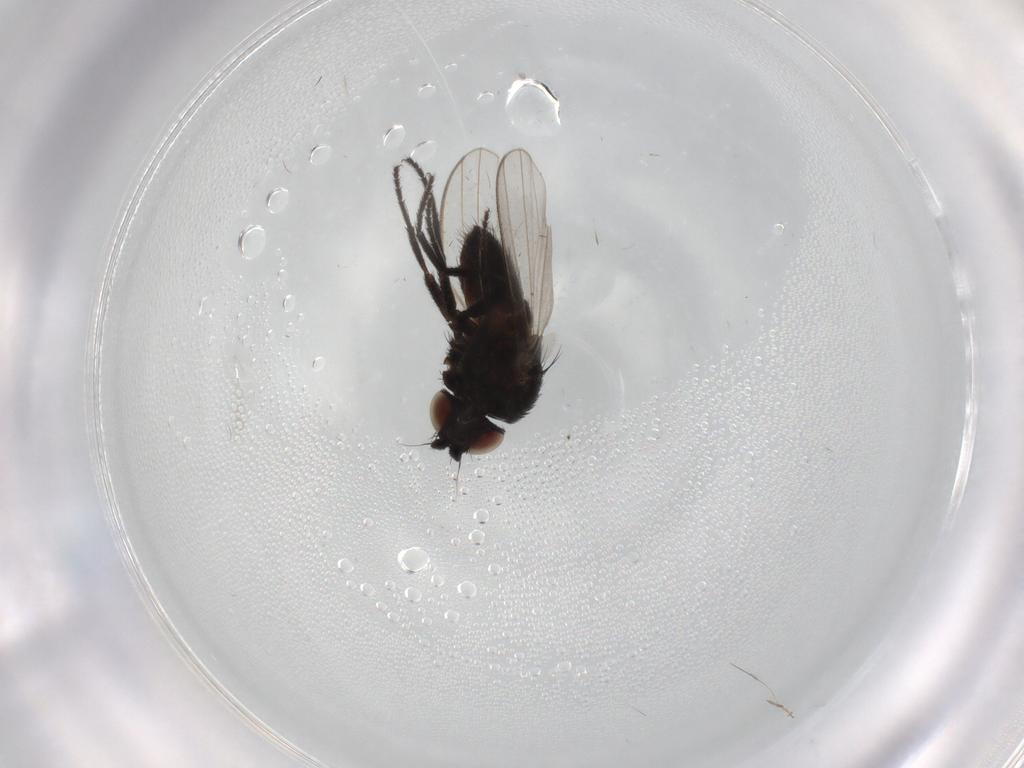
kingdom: Animalia
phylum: Arthropoda
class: Insecta
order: Diptera
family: Milichiidae
